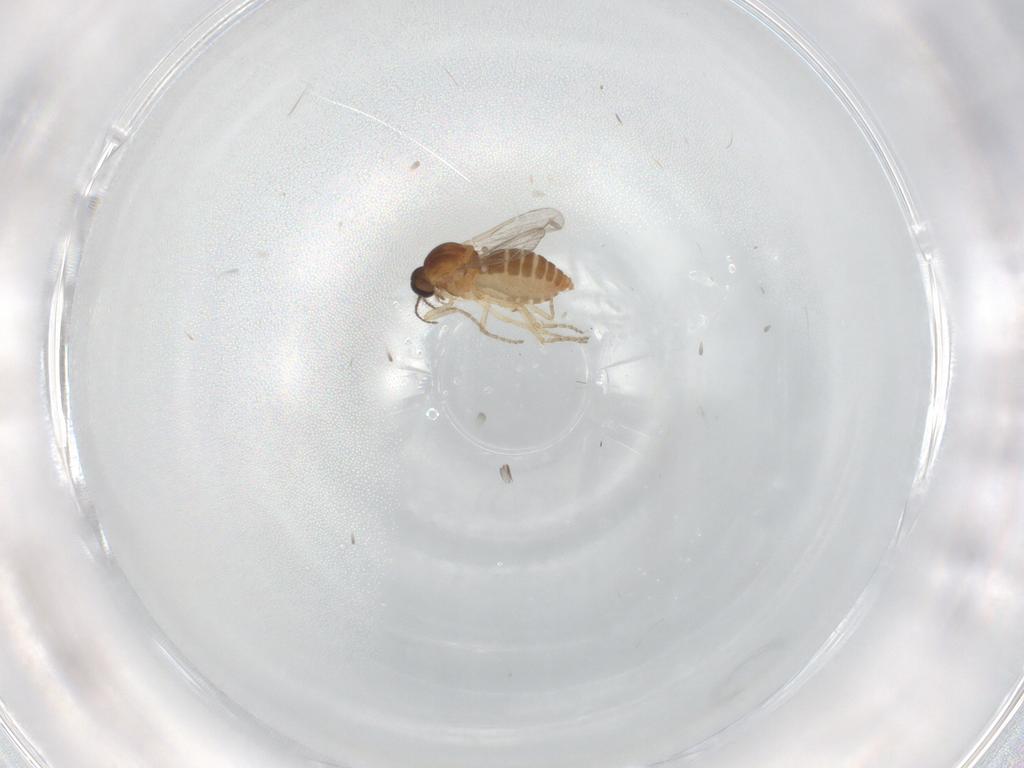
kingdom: Animalia
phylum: Arthropoda
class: Insecta
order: Diptera
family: Ceratopogonidae
